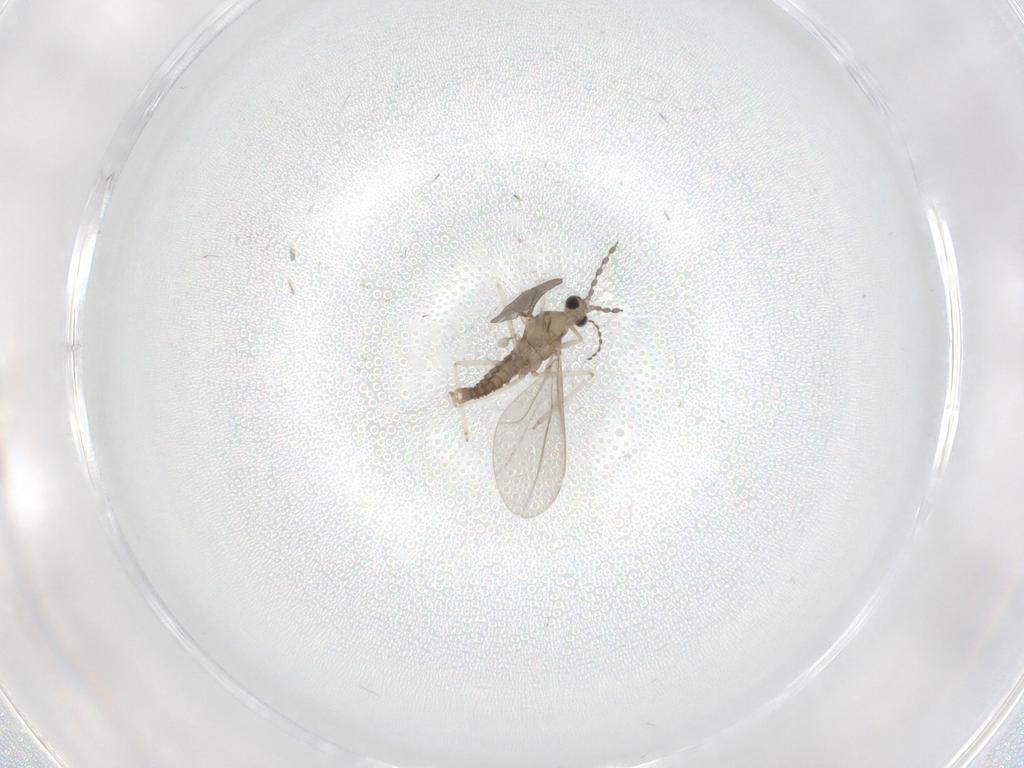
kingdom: Animalia
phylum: Arthropoda
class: Insecta
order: Diptera
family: Cecidomyiidae
